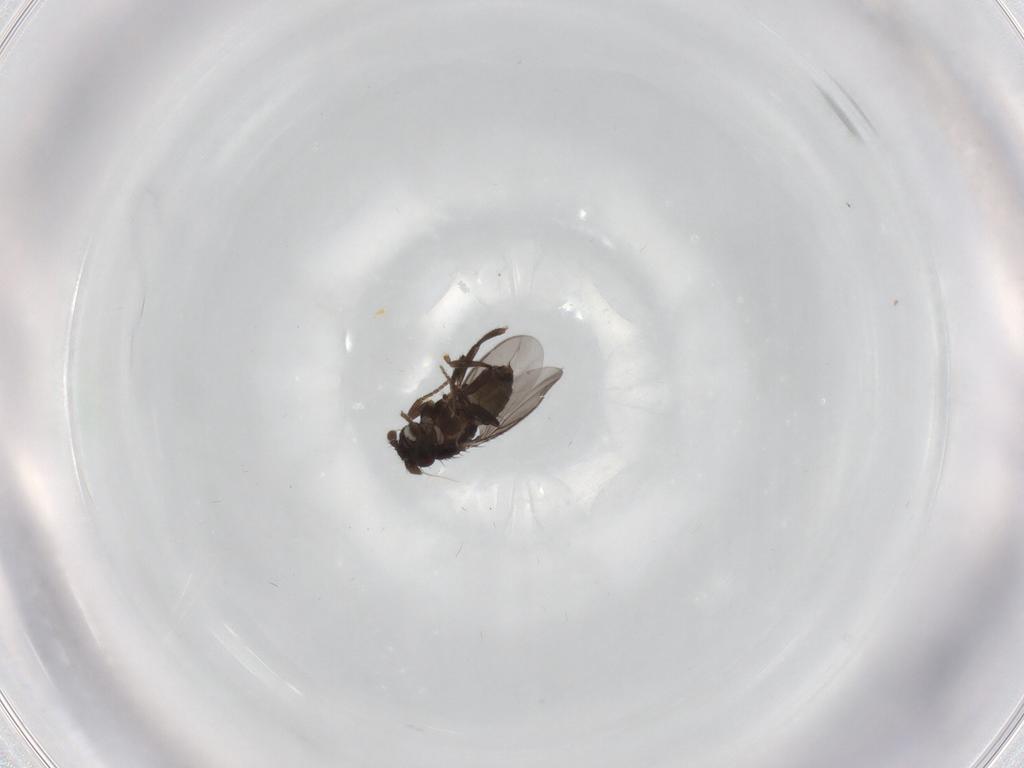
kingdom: Animalia
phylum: Arthropoda
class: Insecta
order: Diptera
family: Sphaeroceridae
